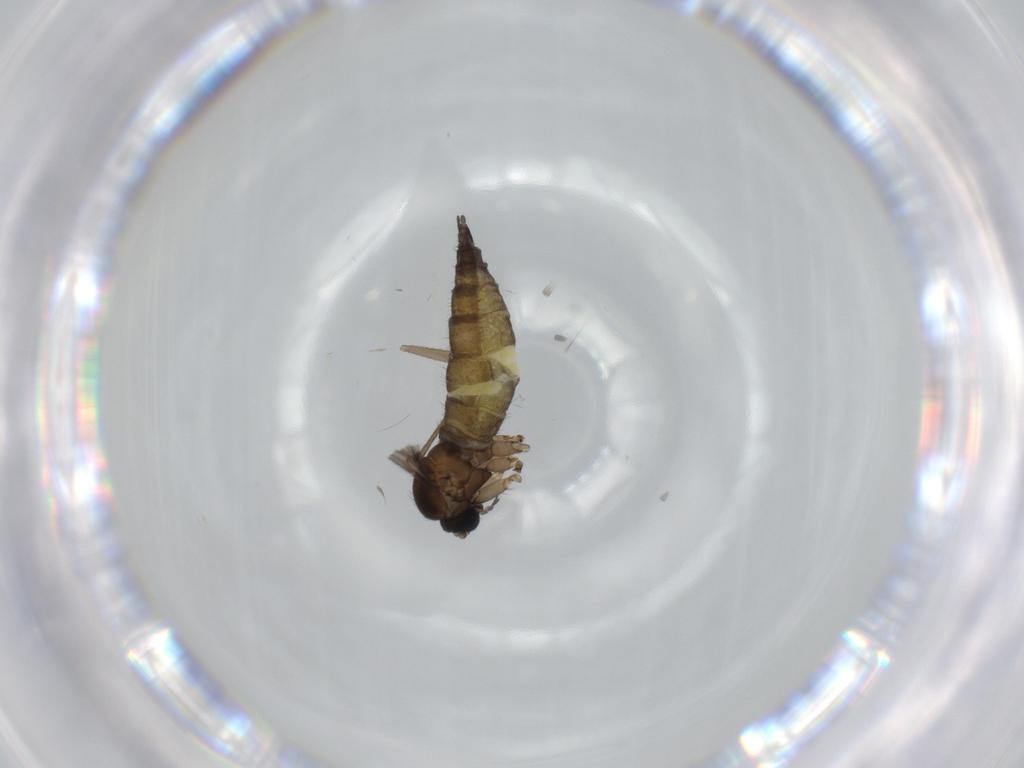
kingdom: Animalia
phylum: Arthropoda
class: Insecta
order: Diptera
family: Sciaridae
